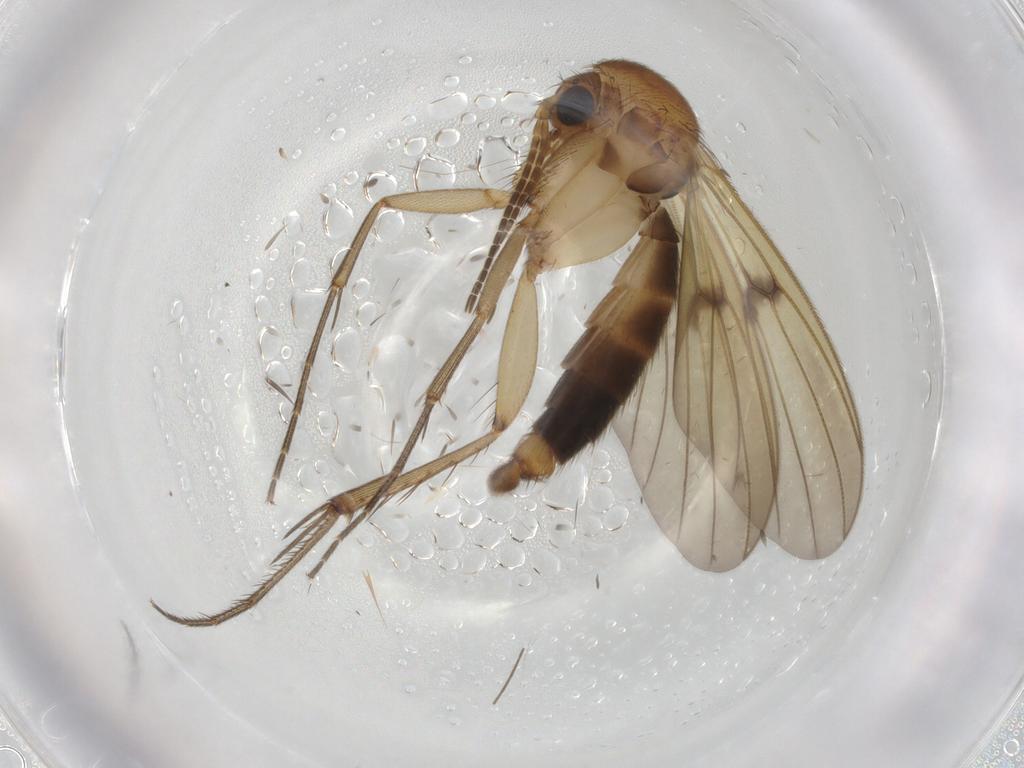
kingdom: Animalia
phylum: Arthropoda
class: Insecta
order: Diptera
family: Mycetophilidae
